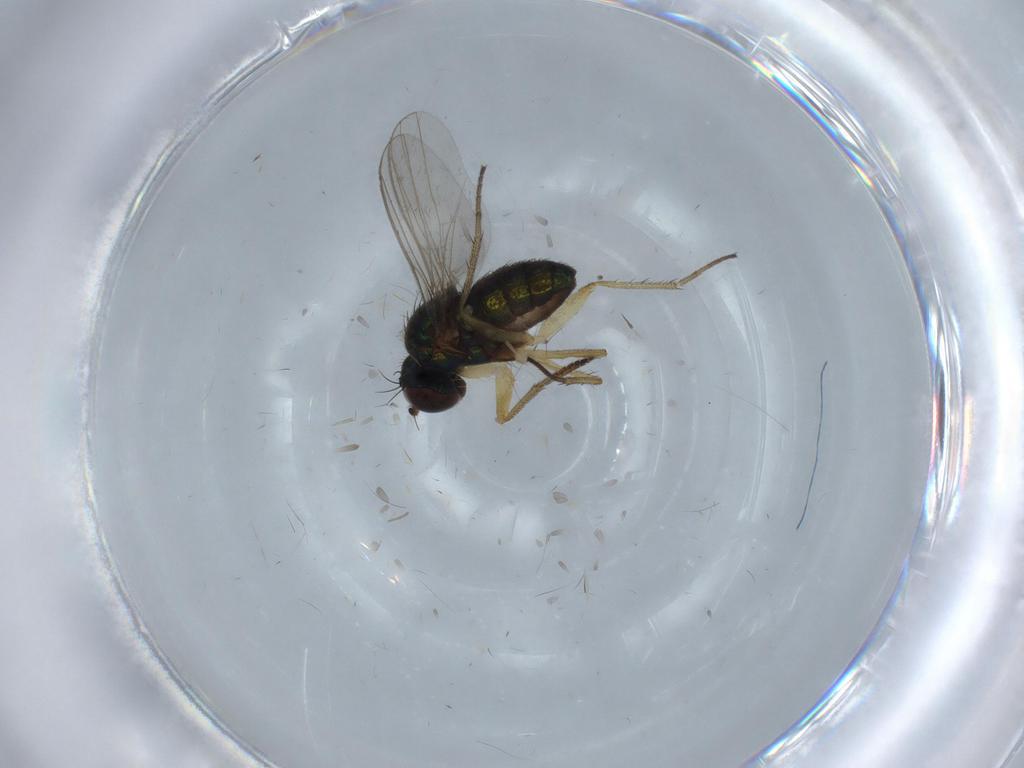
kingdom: Animalia
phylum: Arthropoda
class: Insecta
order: Diptera
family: Dolichopodidae
